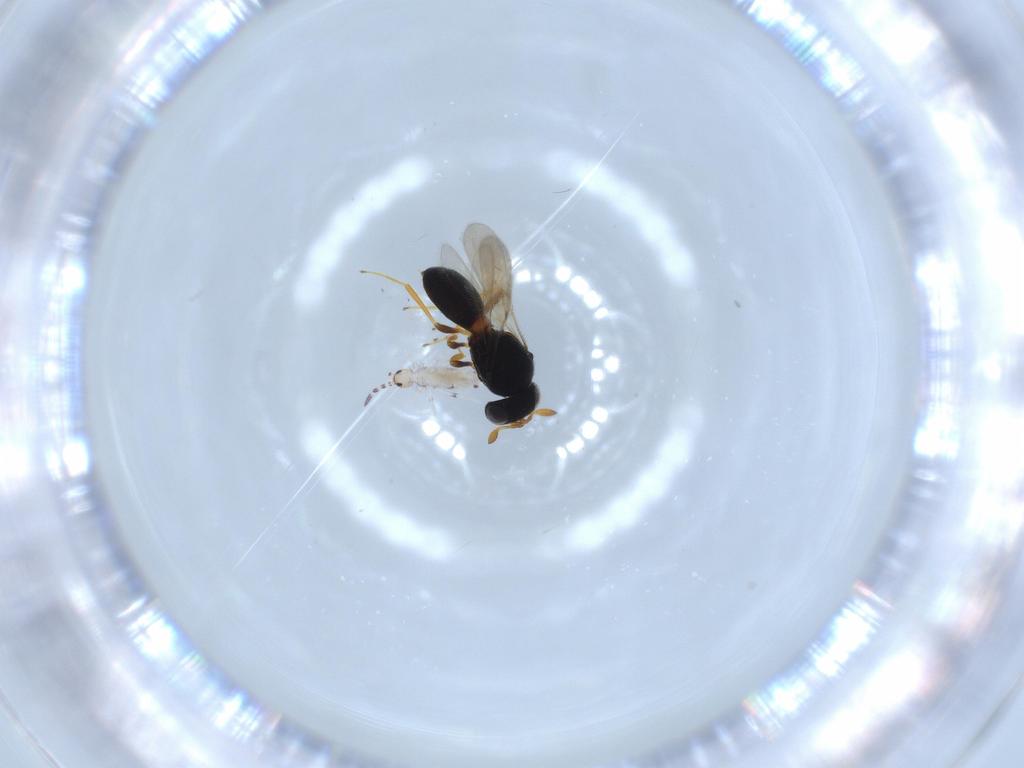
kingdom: Animalia
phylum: Arthropoda
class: Insecta
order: Hymenoptera
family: Scelionidae
